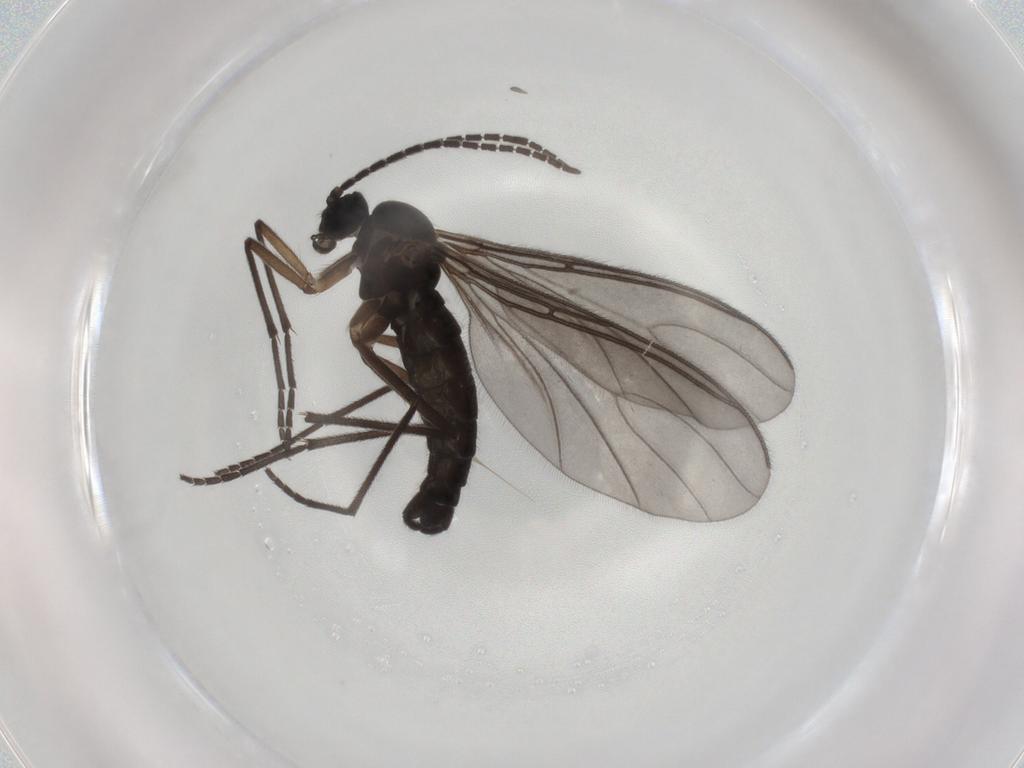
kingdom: Animalia
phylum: Arthropoda
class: Insecta
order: Diptera
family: Sciaridae
